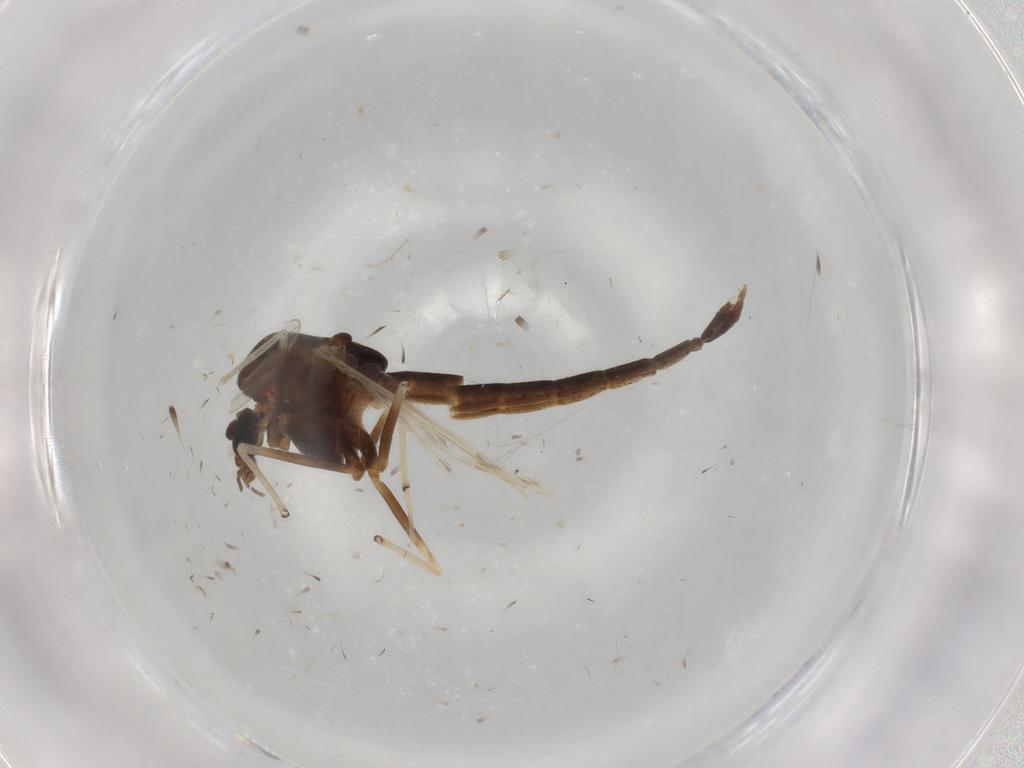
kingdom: Animalia
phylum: Arthropoda
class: Insecta
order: Diptera
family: Chironomidae
